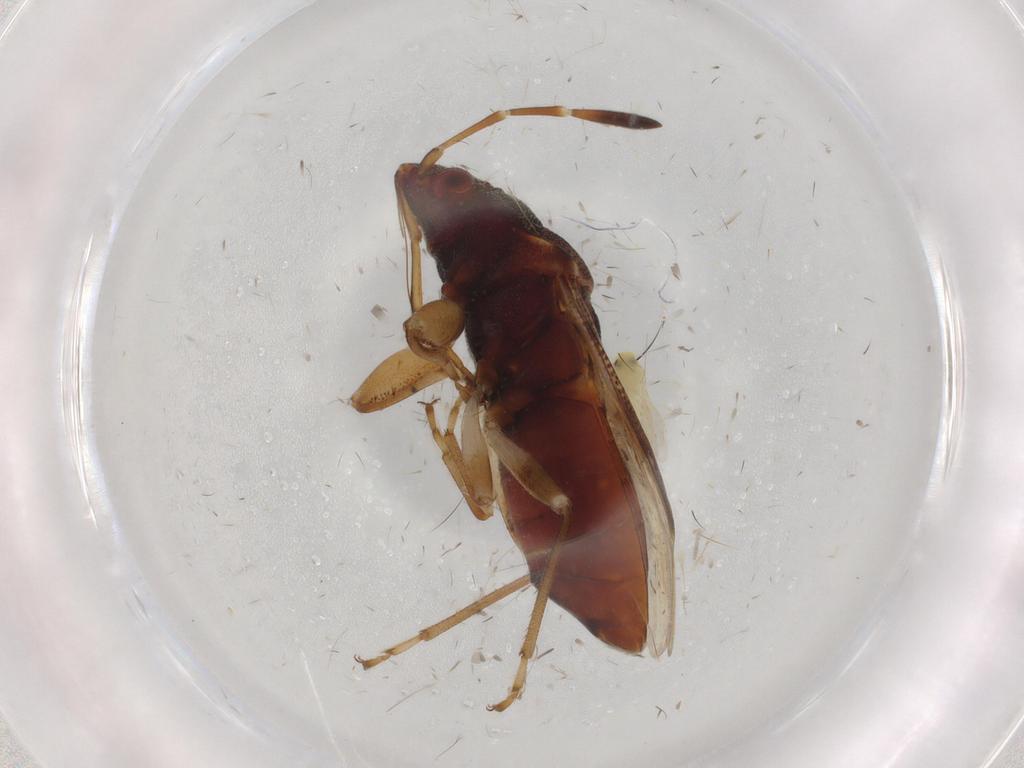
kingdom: Animalia
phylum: Arthropoda
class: Insecta
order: Hemiptera
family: Aleyrodidae
